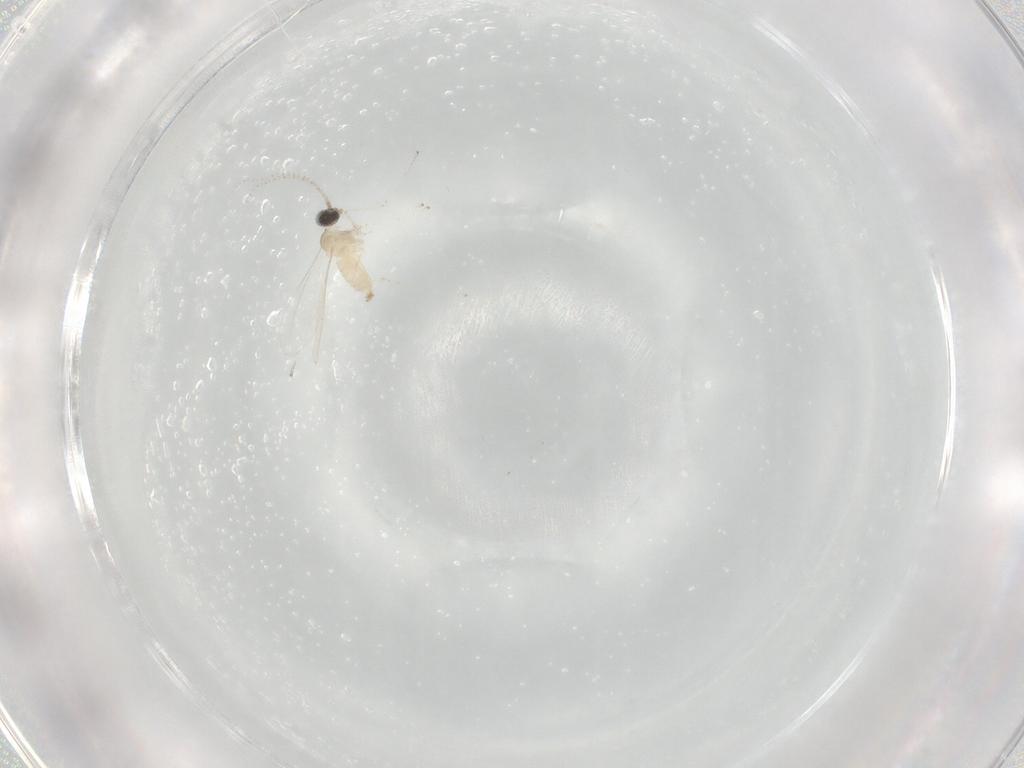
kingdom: Animalia
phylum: Arthropoda
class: Insecta
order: Diptera
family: Cecidomyiidae
